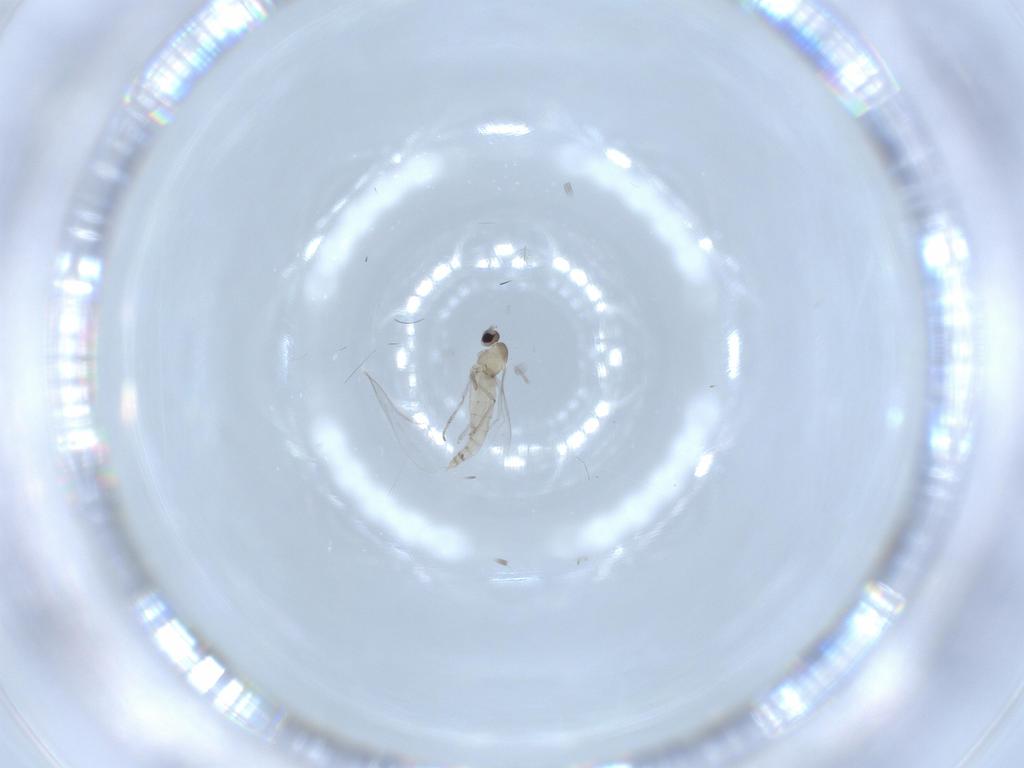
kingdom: Animalia
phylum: Arthropoda
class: Insecta
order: Diptera
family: Cecidomyiidae
